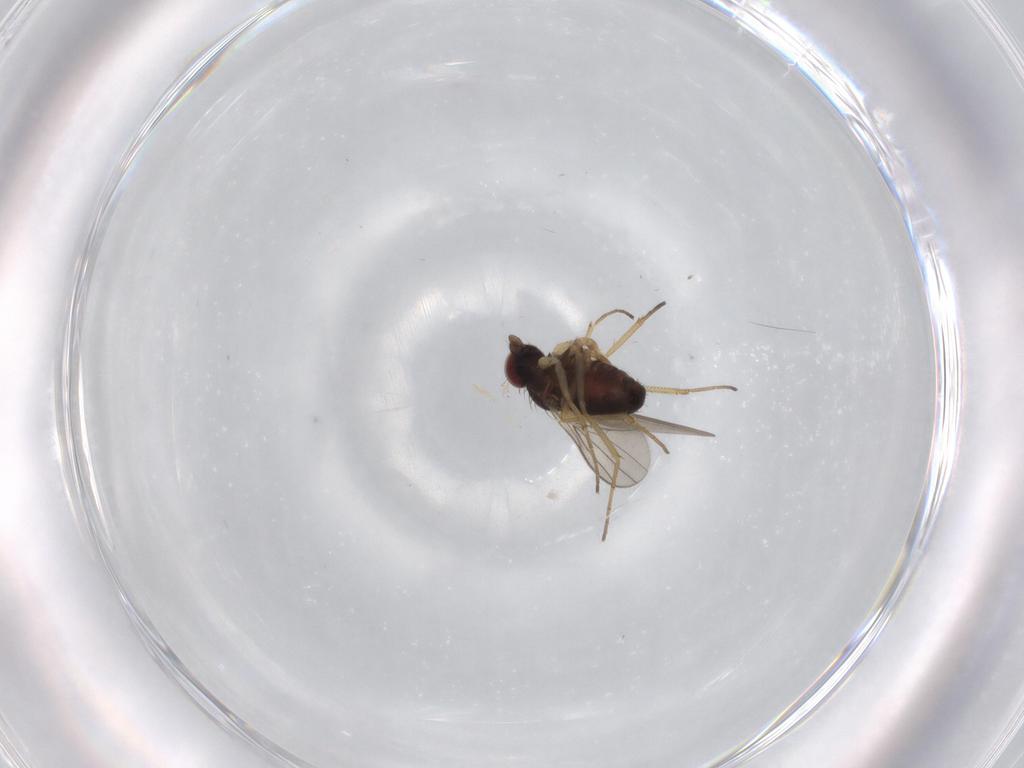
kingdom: Animalia
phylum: Arthropoda
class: Insecta
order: Diptera
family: Dolichopodidae
